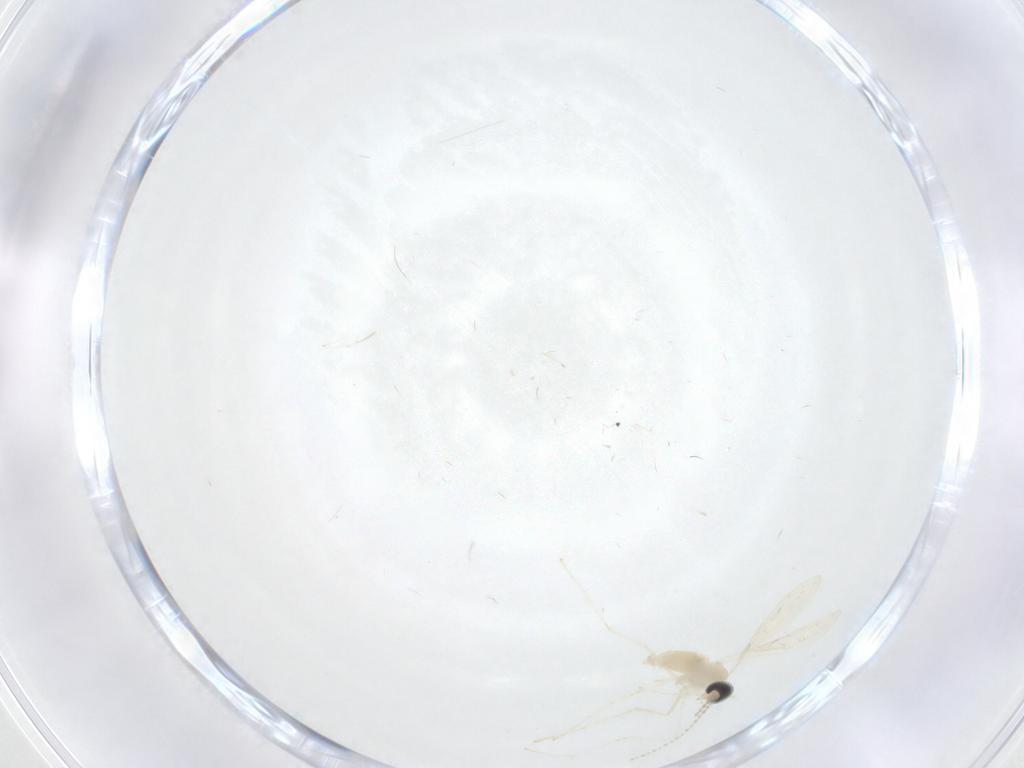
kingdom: Animalia
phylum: Arthropoda
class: Insecta
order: Diptera
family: Cecidomyiidae
